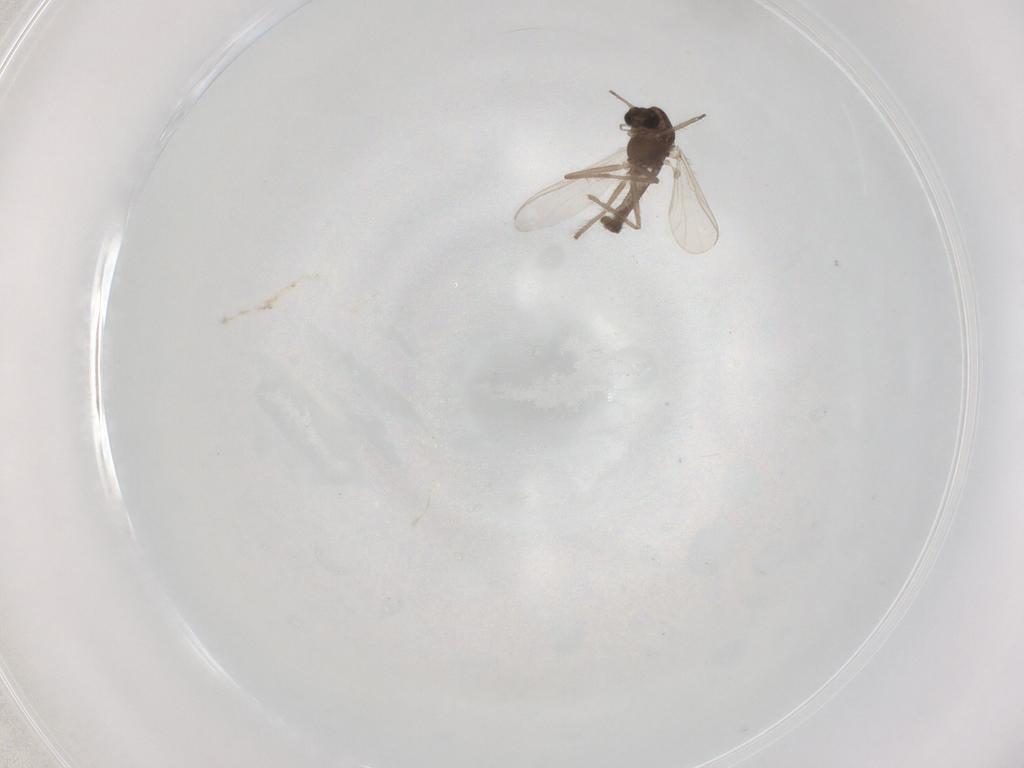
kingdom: Animalia
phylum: Arthropoda
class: Insecta
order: Diptera
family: Chironomidae
